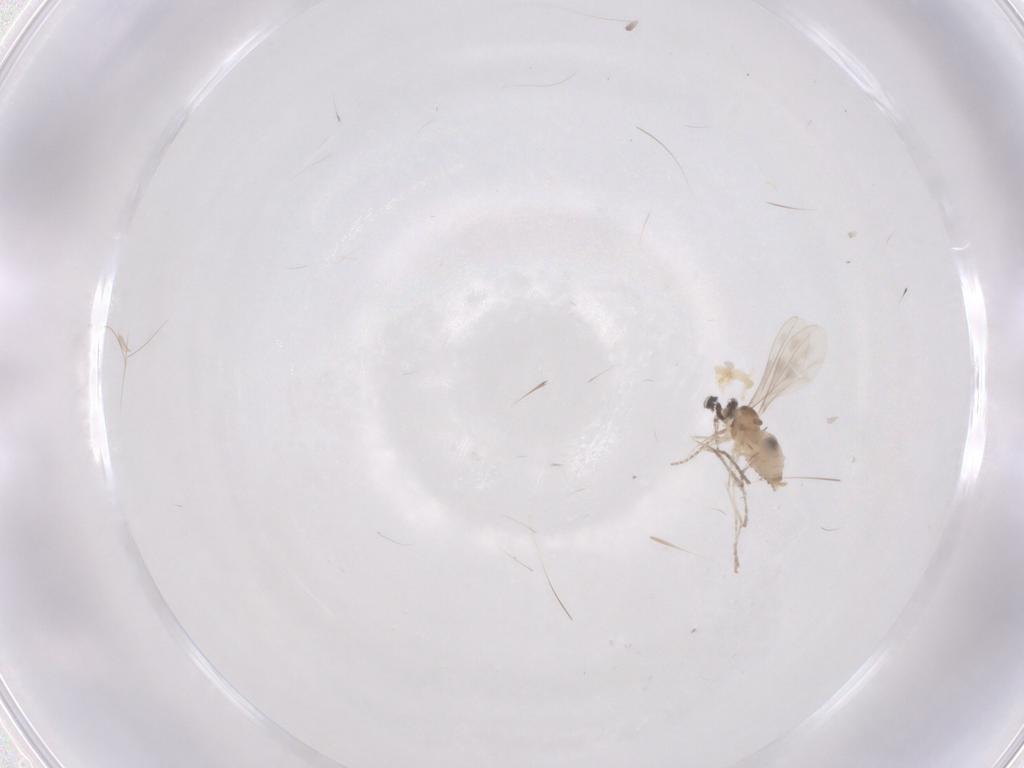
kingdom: Animalia
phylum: Arthropoda
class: Insecta
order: Diptera
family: Cecidomyiidae
